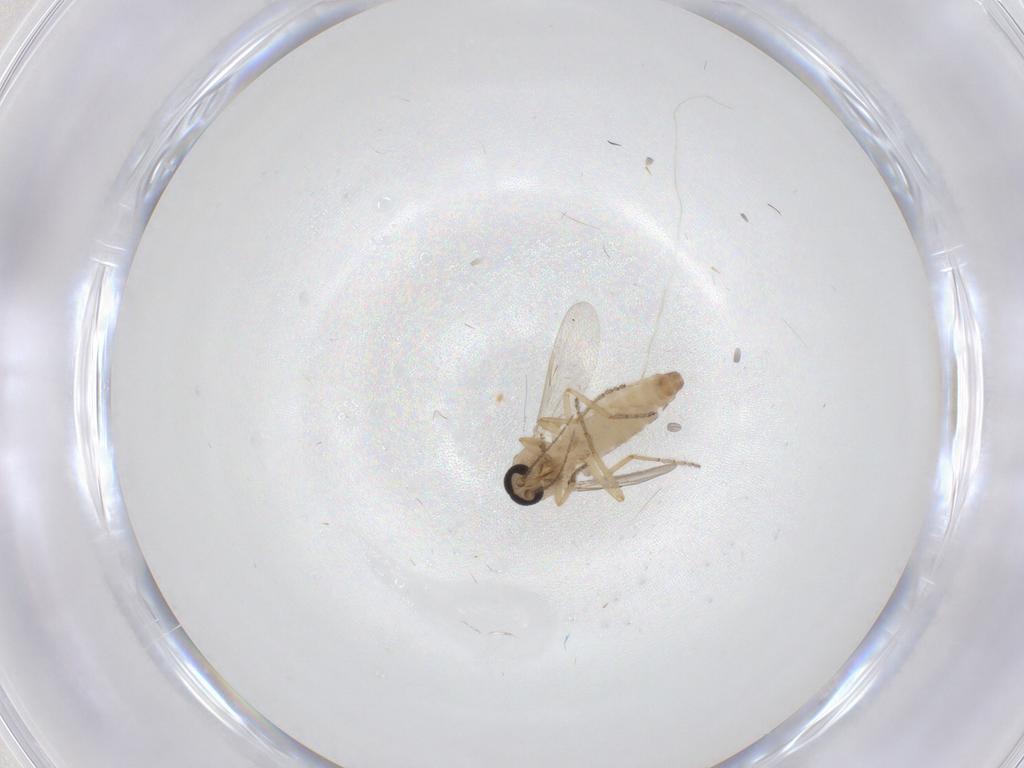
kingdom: Animalia
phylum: Arthropoda
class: Insecta
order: Diptera
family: Ceratopogonidae
